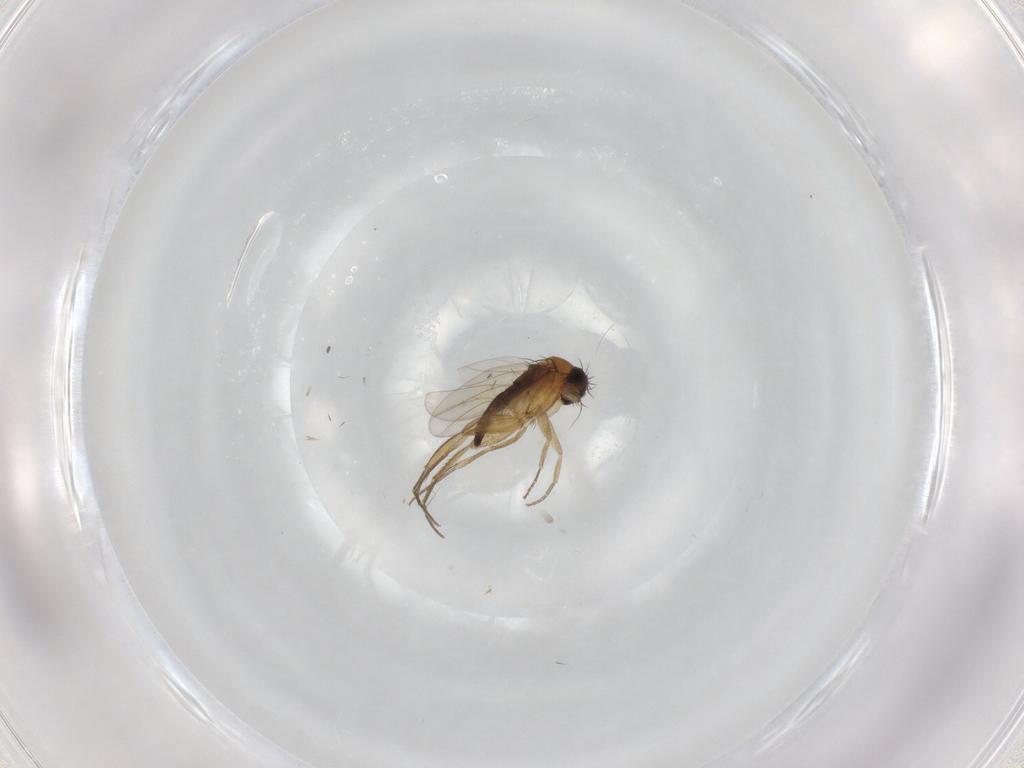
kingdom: Animalia
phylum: Arthropoda
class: Insecta
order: Diptera
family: Phoridae
